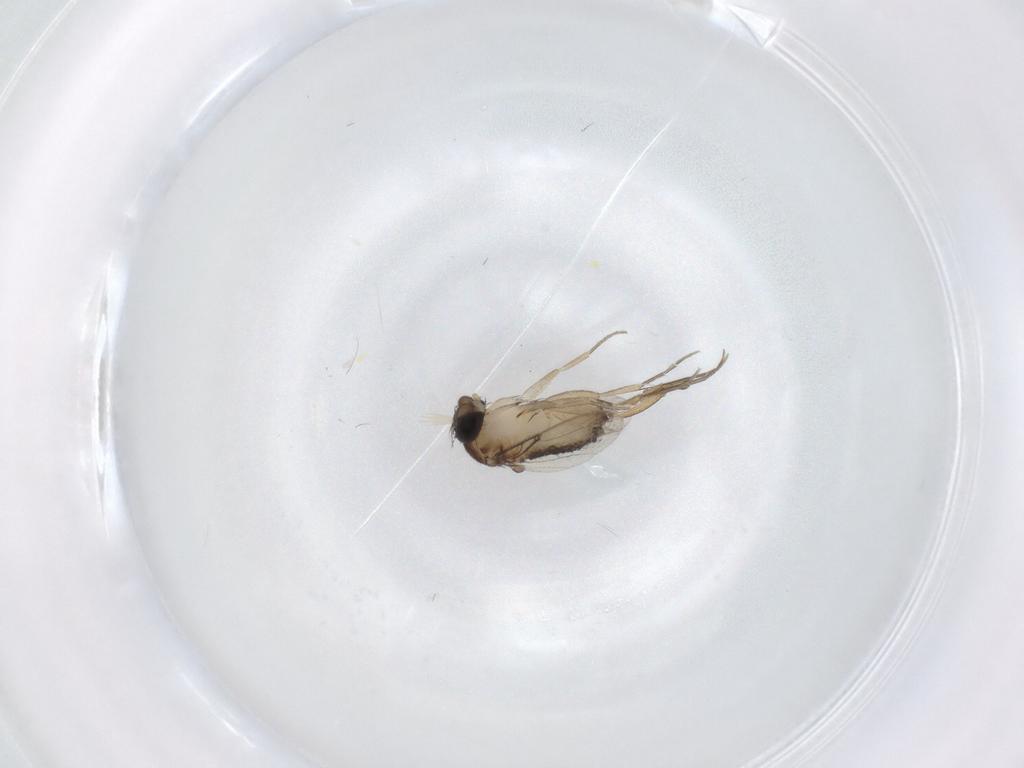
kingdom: Animalia
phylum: Arthropoda
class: Insecta
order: Diptera
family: Phoridae
